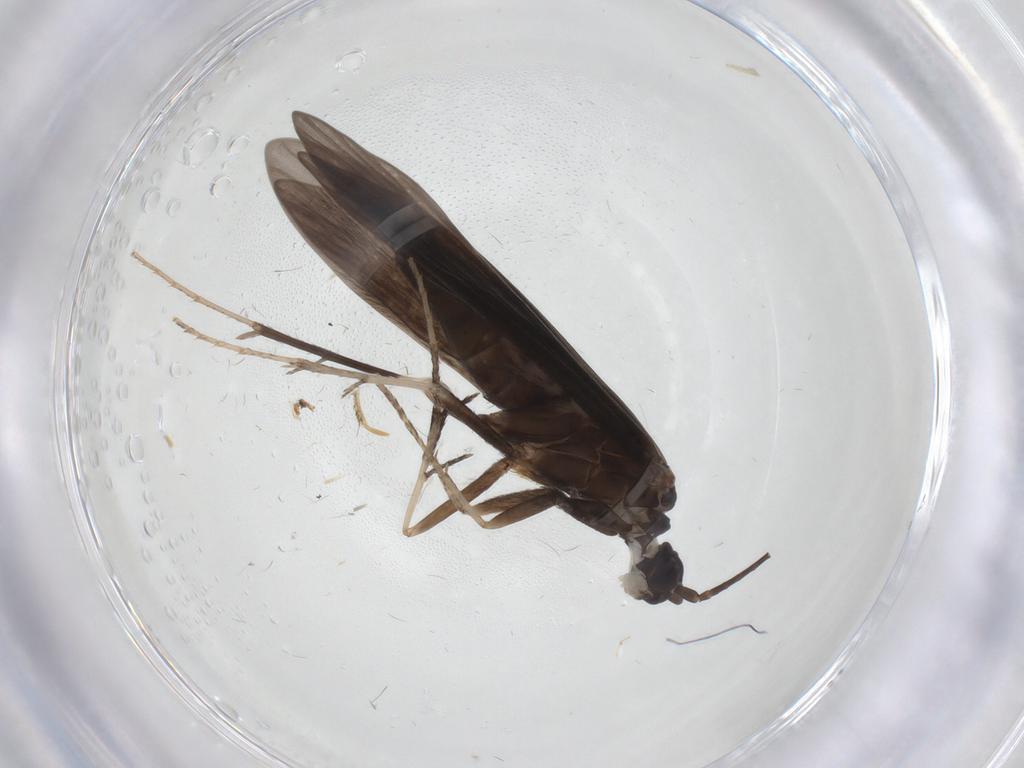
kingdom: Animalia
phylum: Arthropoda
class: Insecta
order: Trichoptera
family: Xiphocentronidae
